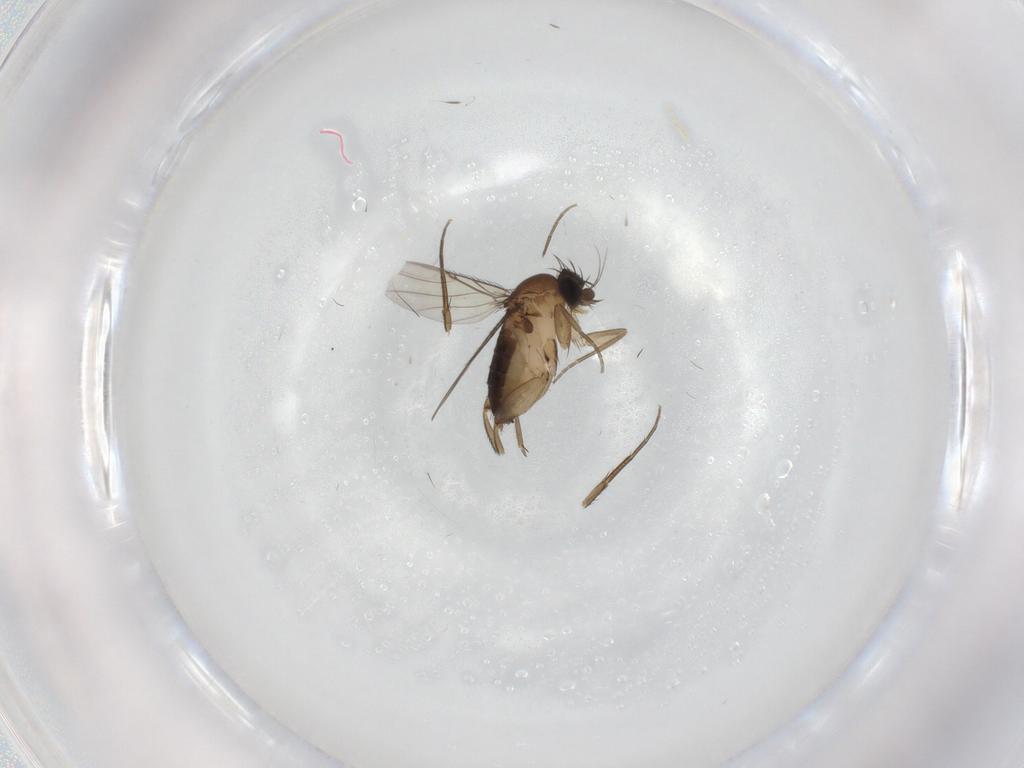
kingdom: Animalia
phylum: Arthropoda
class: Insecta
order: Diptera
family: Phoridae
